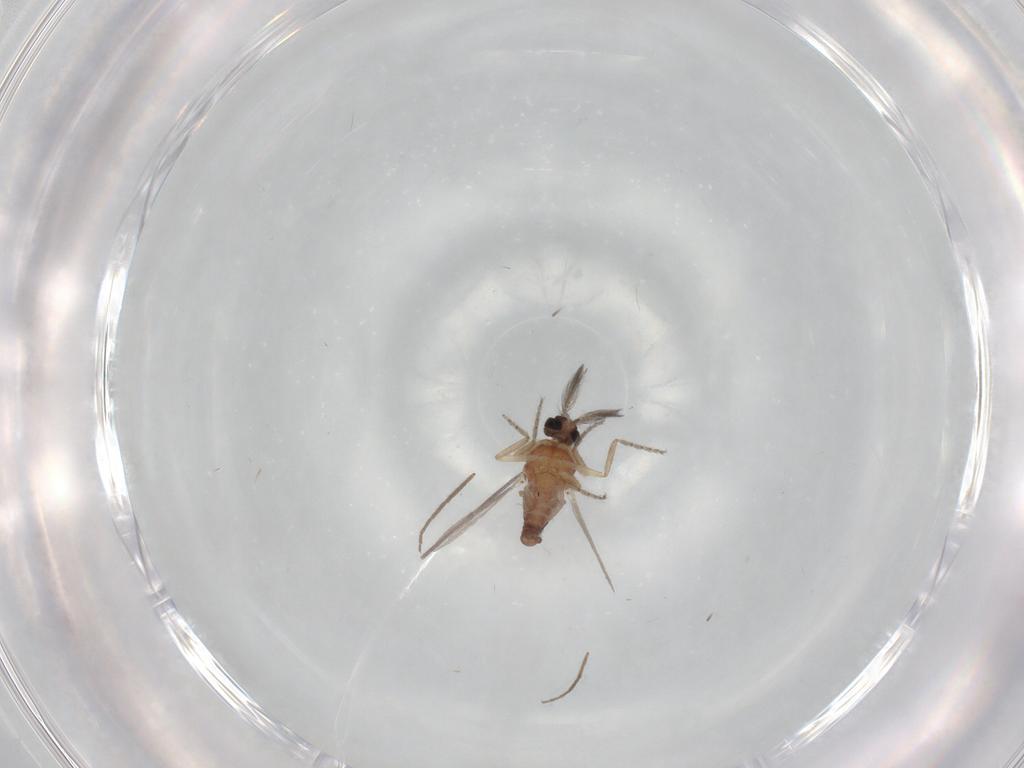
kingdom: Animalia
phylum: Arthropoda
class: Insecta
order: Diptera
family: Ceratopogonidae
